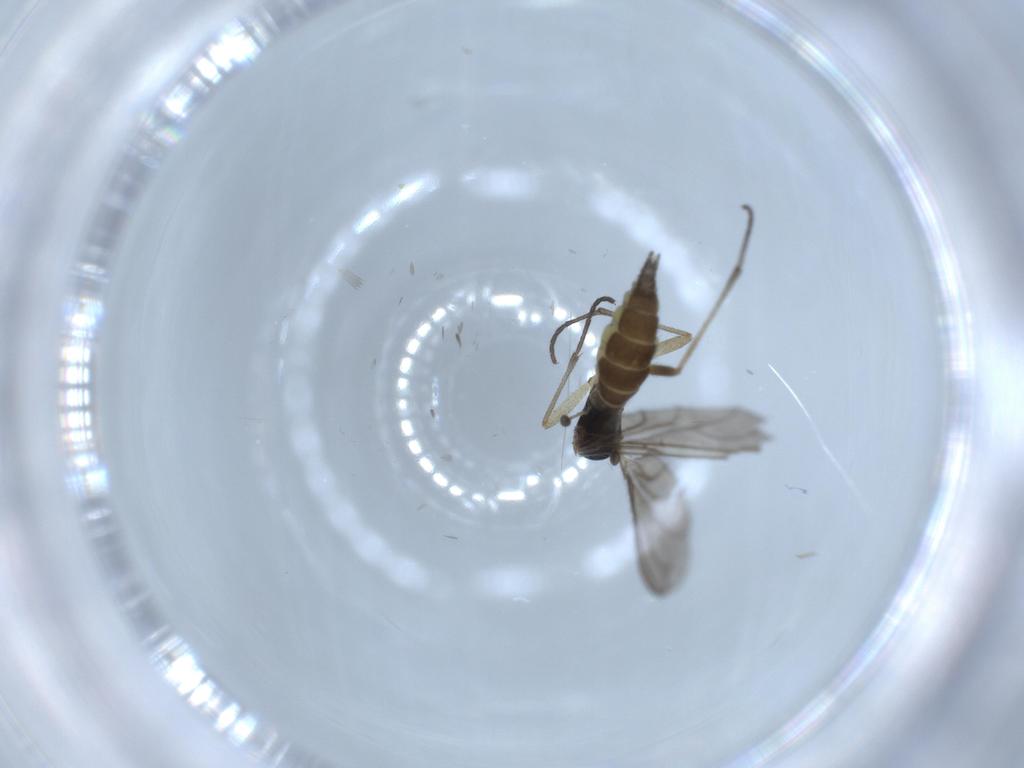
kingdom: Animalia
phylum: Arthropoda
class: Insecta
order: Diptera
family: Sciaridae
